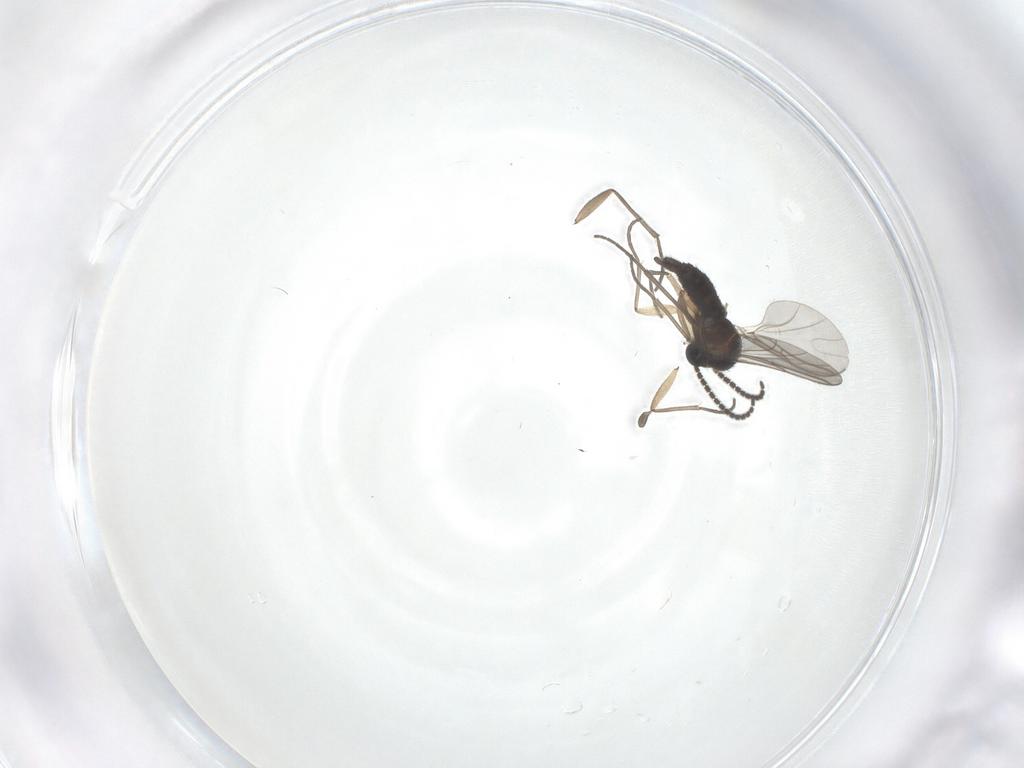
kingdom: Animalia
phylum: Arthropoda
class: Insecta
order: Diptera
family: Sciaridae
